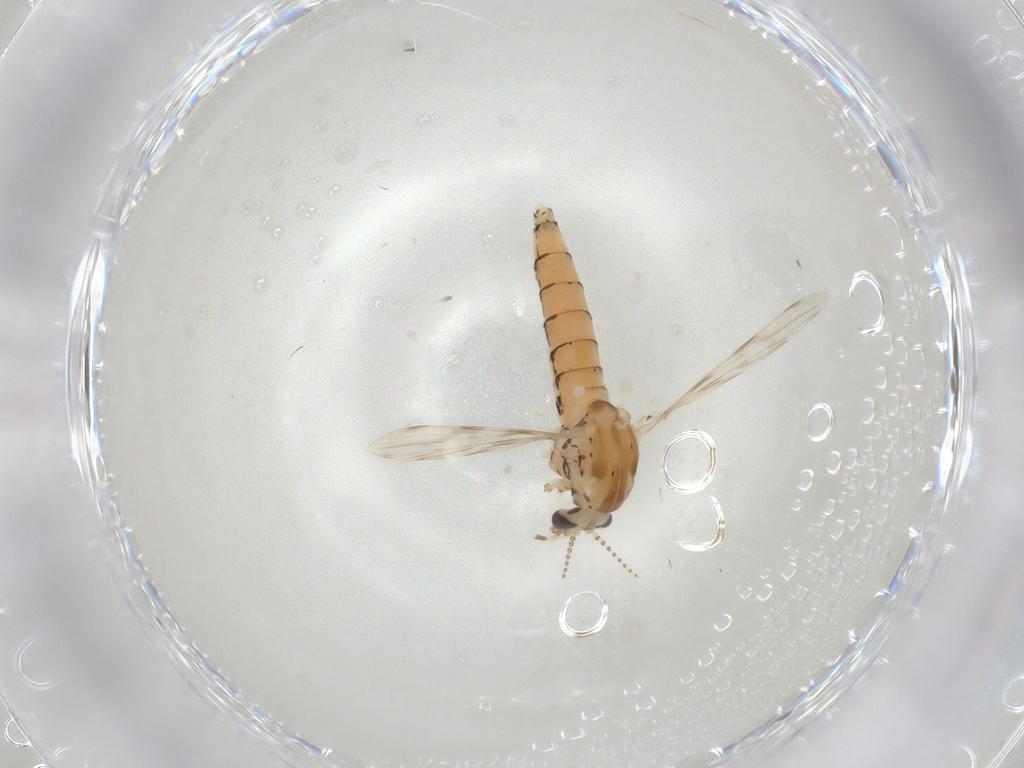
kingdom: Animalia
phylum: Arthropoda
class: Insecta
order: Diptera
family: Chaoboridae
